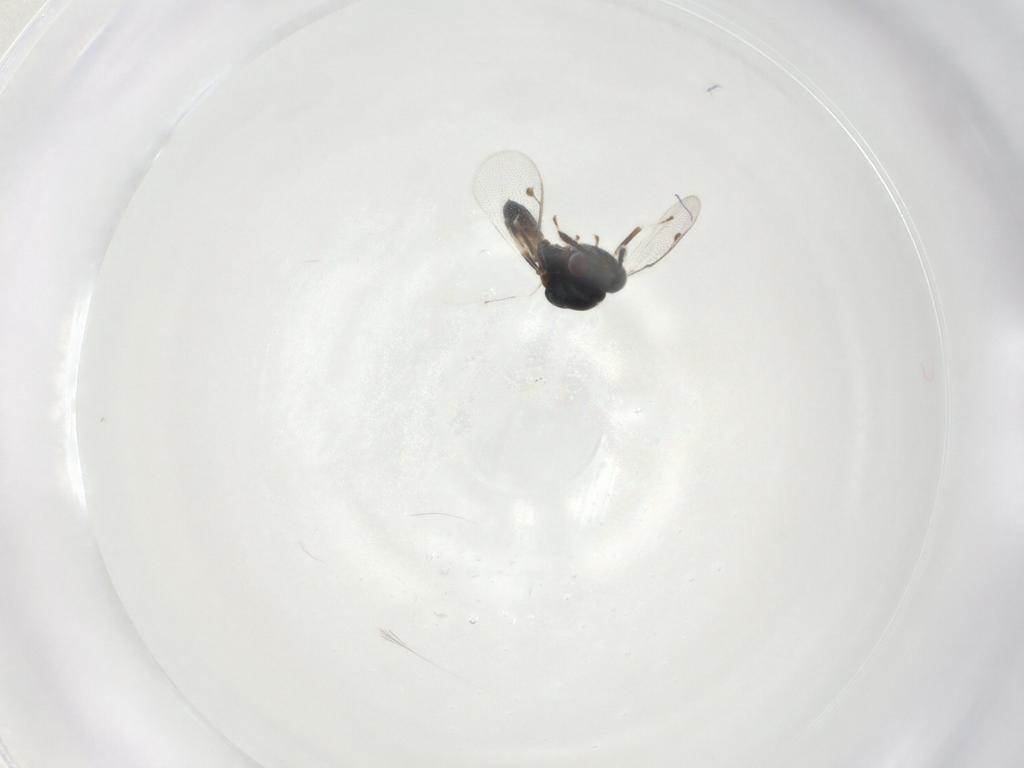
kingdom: Animalia
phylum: Arthropoda
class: Insecta
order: Hymenoptera
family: Pteromalidae
